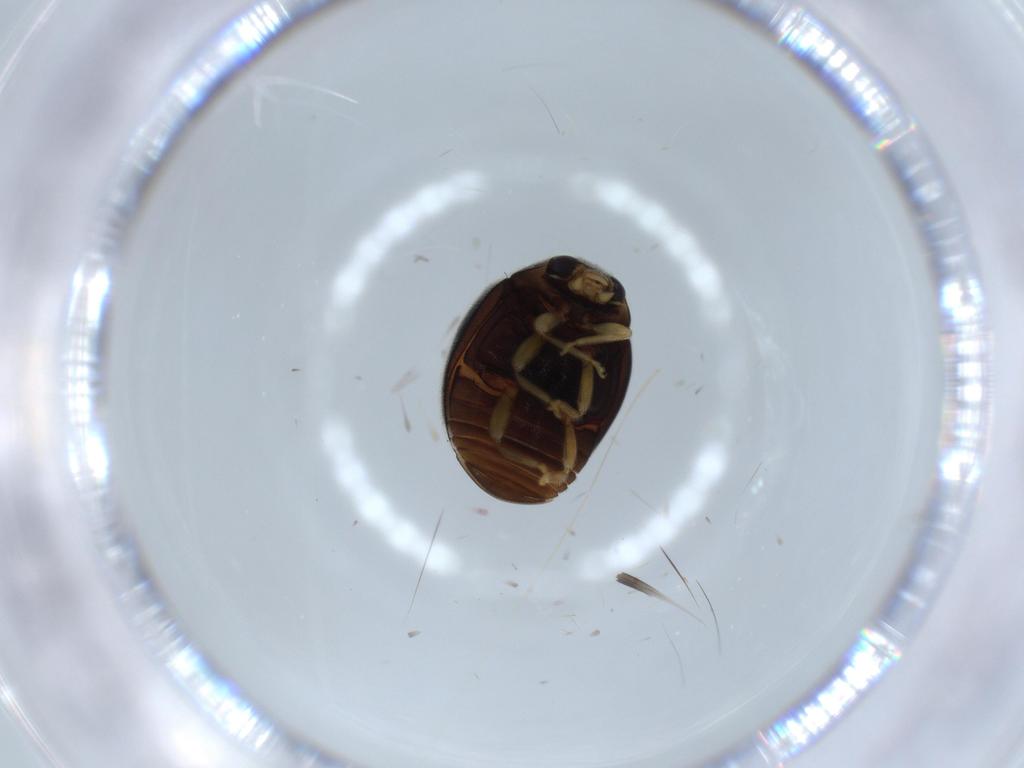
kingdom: Animalia
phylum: Arthropoda
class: Insecta
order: Coleoptera
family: Coccinellidae
